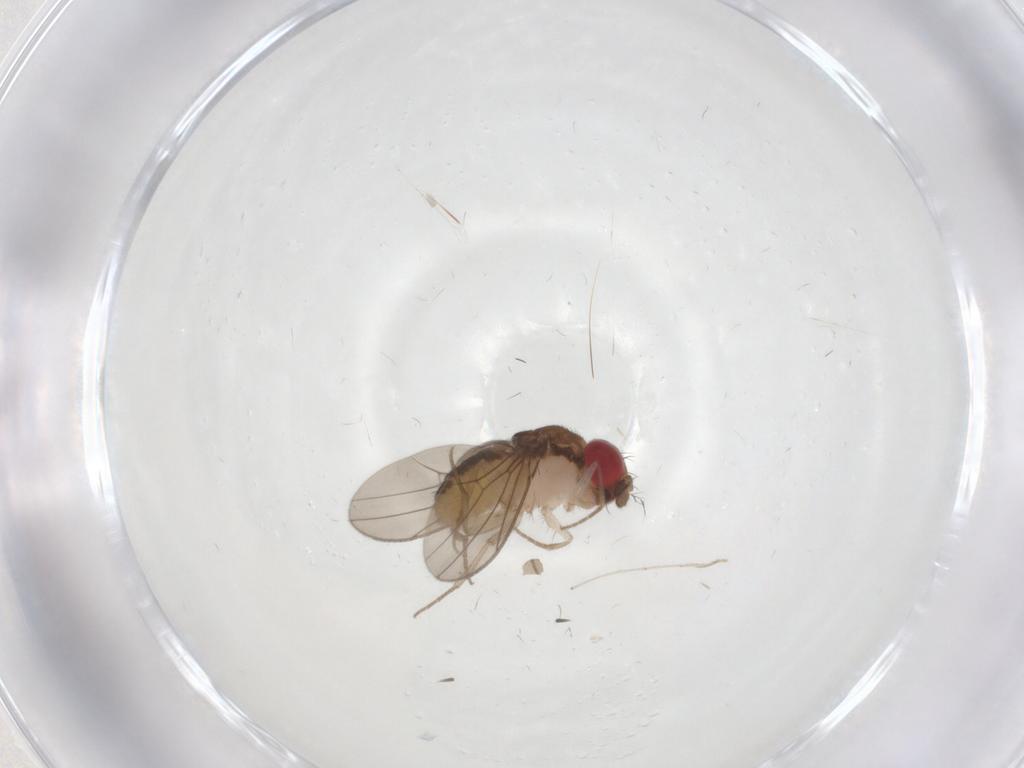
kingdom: Animalia
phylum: Arthropoda
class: Insecta
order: Diptera
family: Drosophilidae
